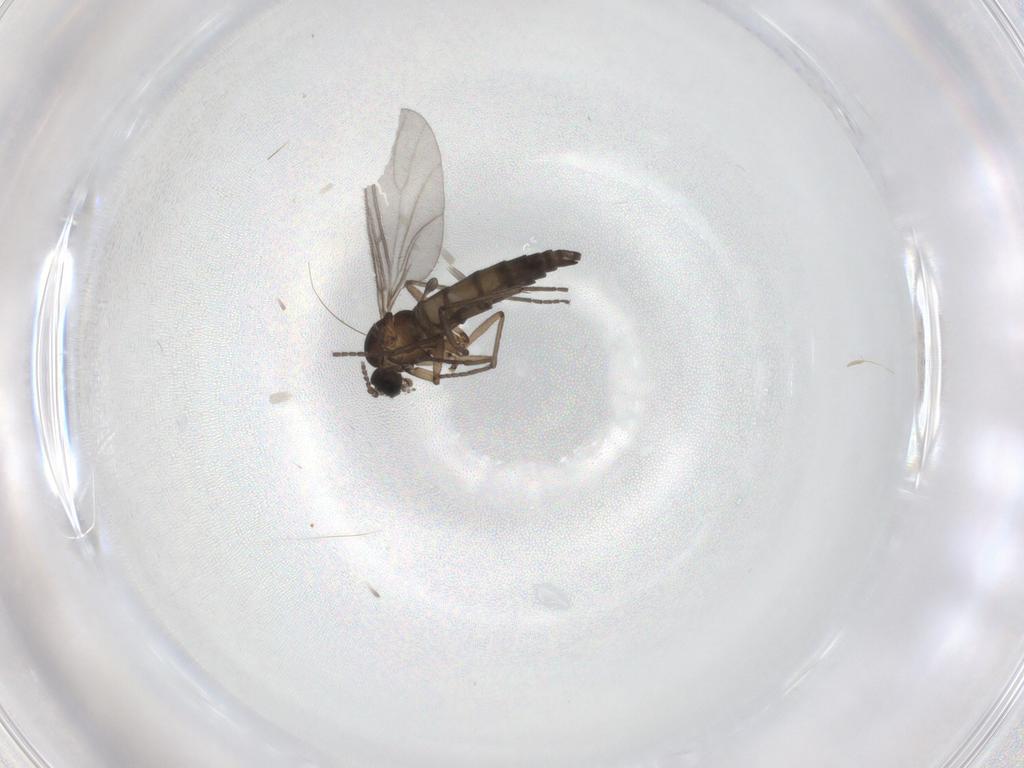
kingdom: Animalia
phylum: Arthropoda
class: Insecta
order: Diptera
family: Sciaridae
